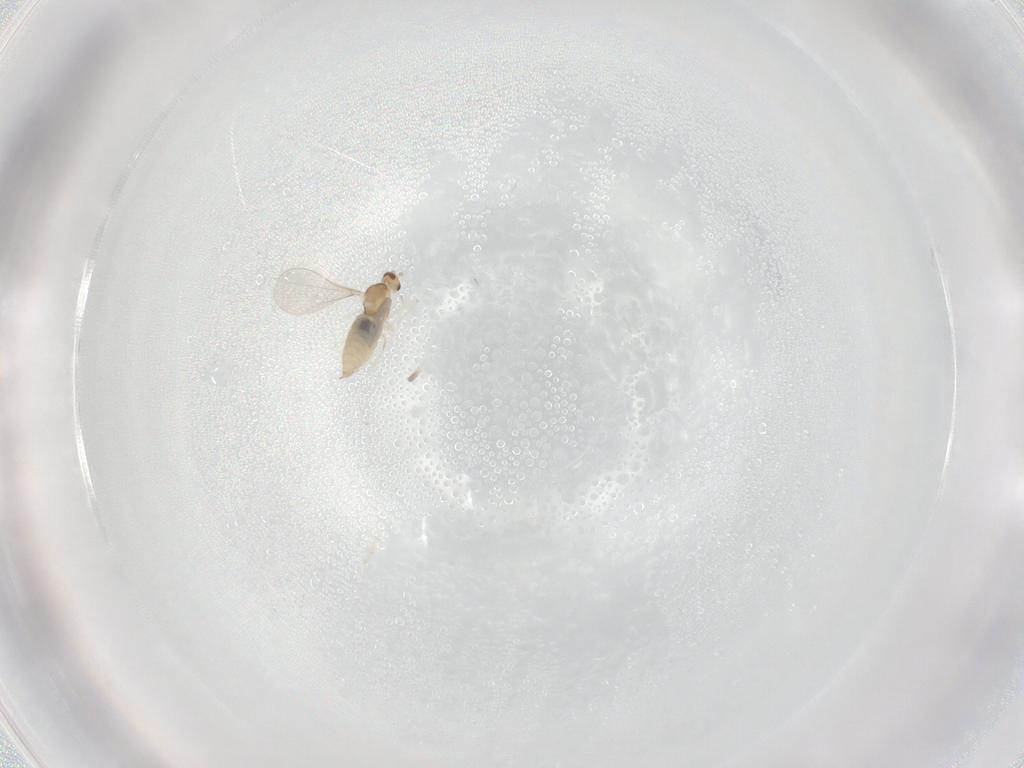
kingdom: Animalia
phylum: Arthropoda
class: Insecta
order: Diptera
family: Cecidomyiidae
